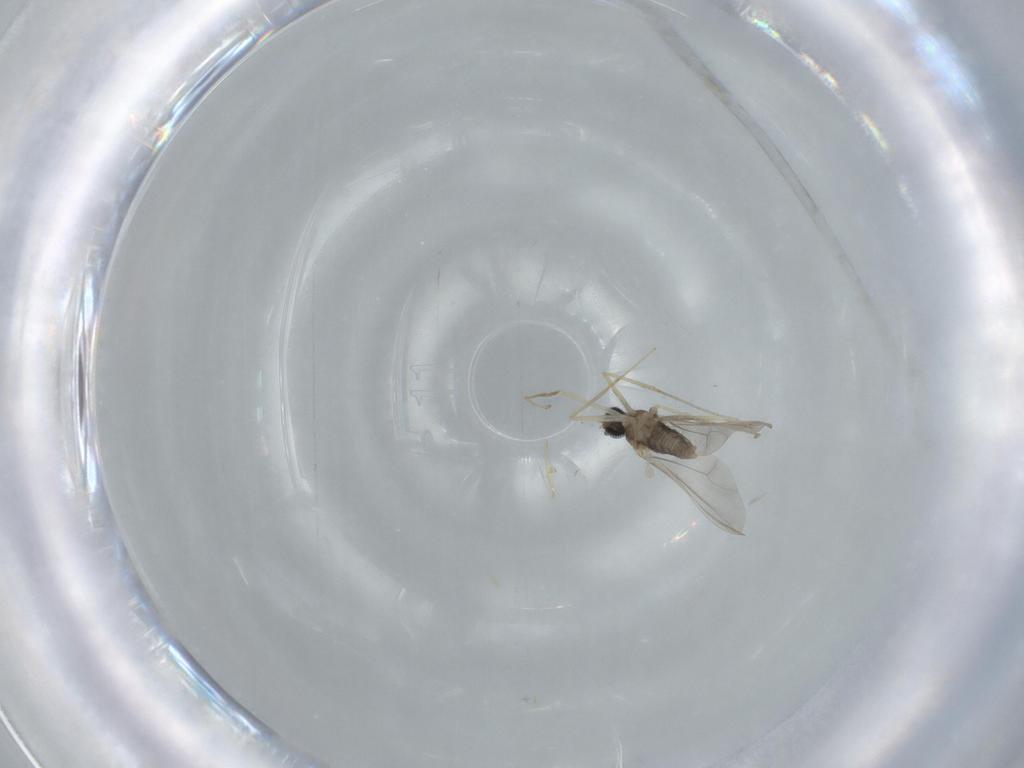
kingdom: Animalia
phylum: Arthropoda
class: Insecta
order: Diptera
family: Cecidomyiidae
